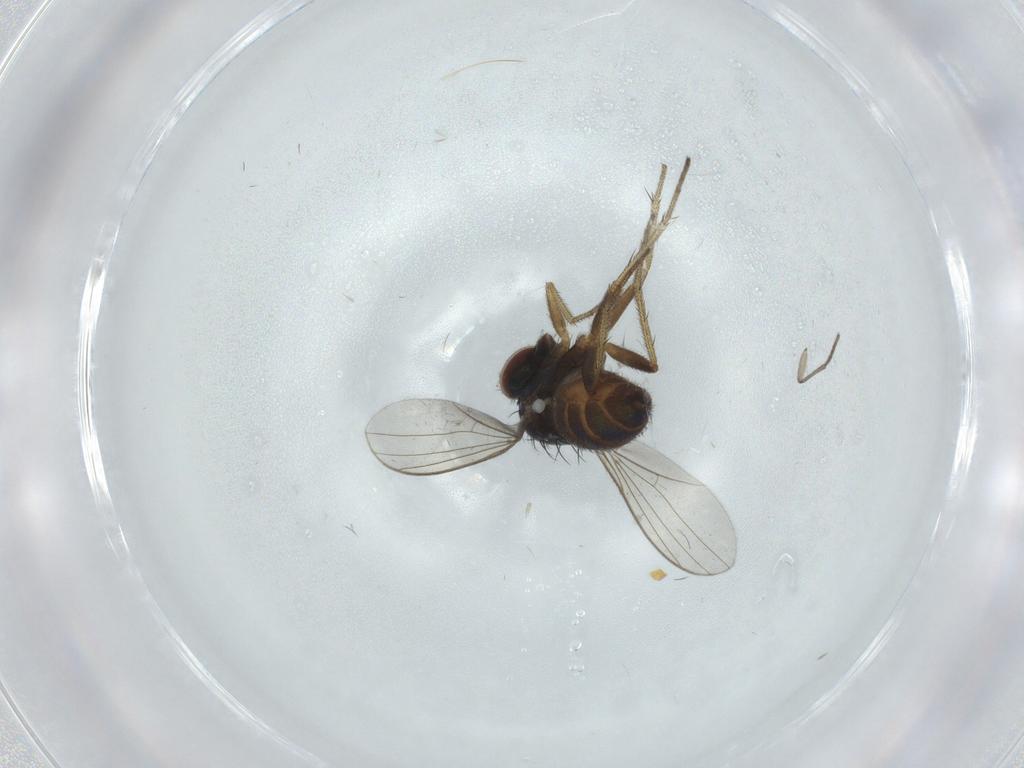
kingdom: Animalia
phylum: Arthropoda
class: Insecta
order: Diptera
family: Dolichopodidae
